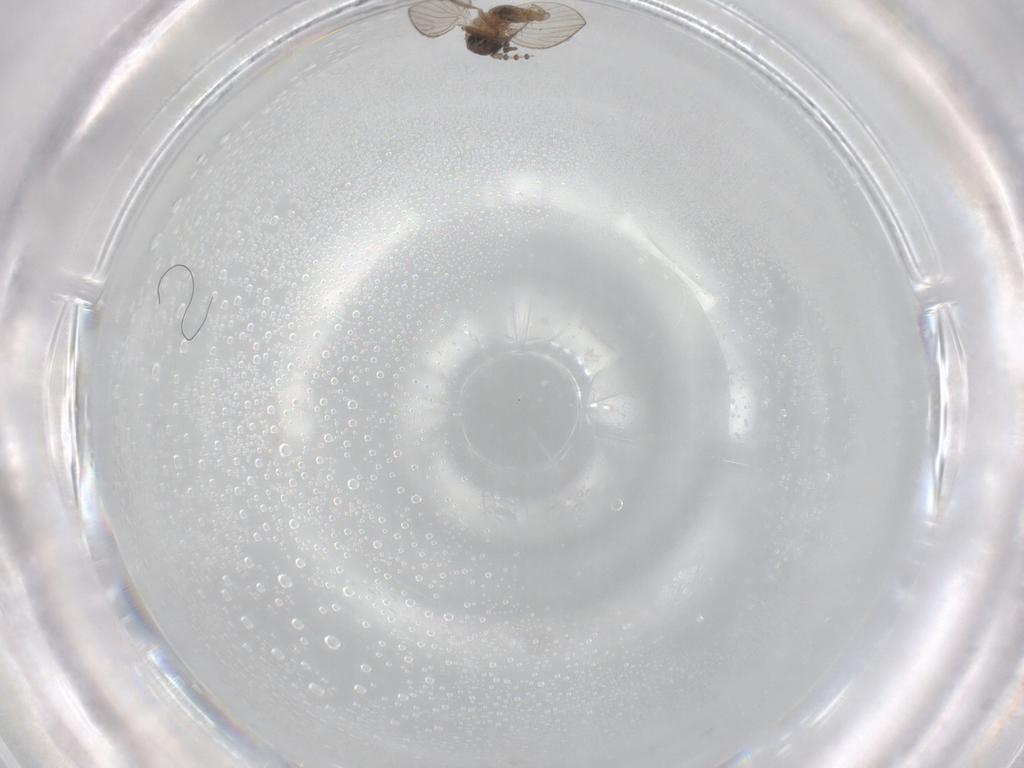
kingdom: Animalia
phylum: Arthropoda
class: Insecta
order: Diptera
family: Psychodidae
